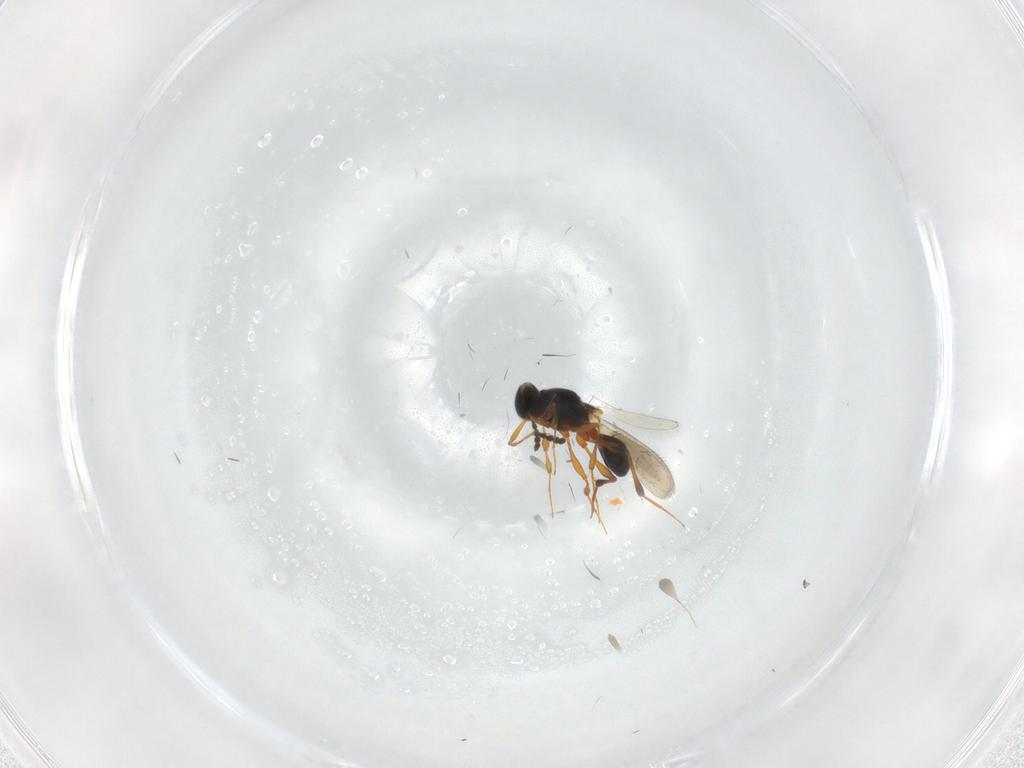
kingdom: Animalia
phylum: Arthropoda
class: Insecta
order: Hymenoptera
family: Platygastridae
